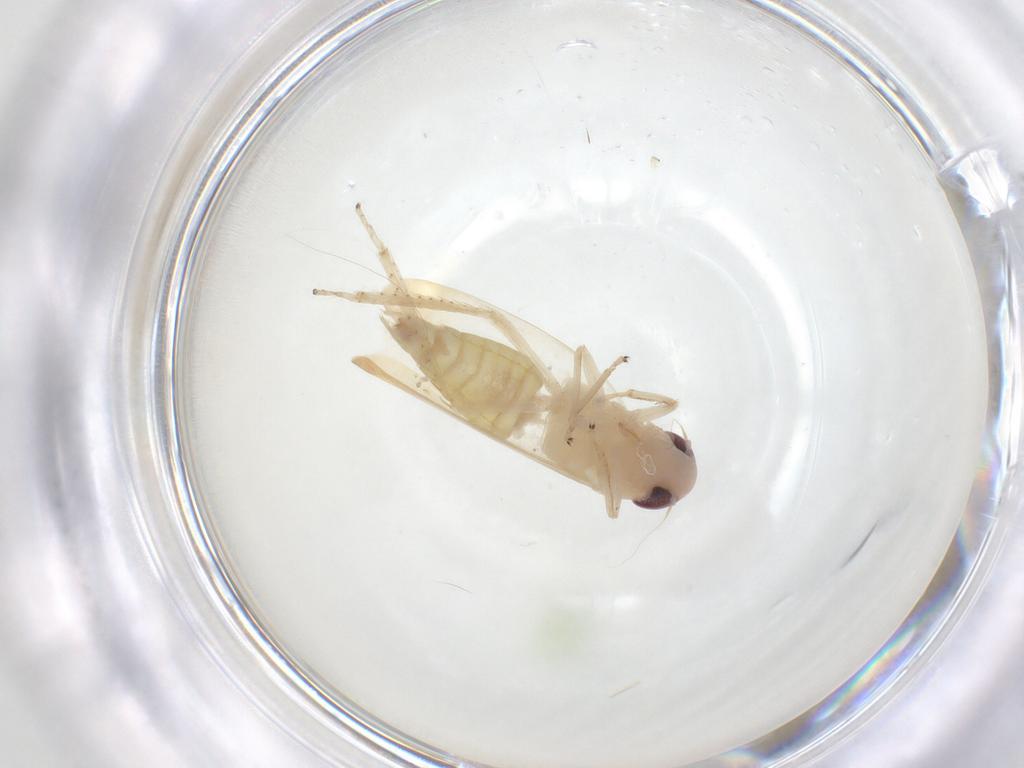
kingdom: Animalia
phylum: Arthropoda
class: Insecta
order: Hemiptera
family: Cicadellidae
